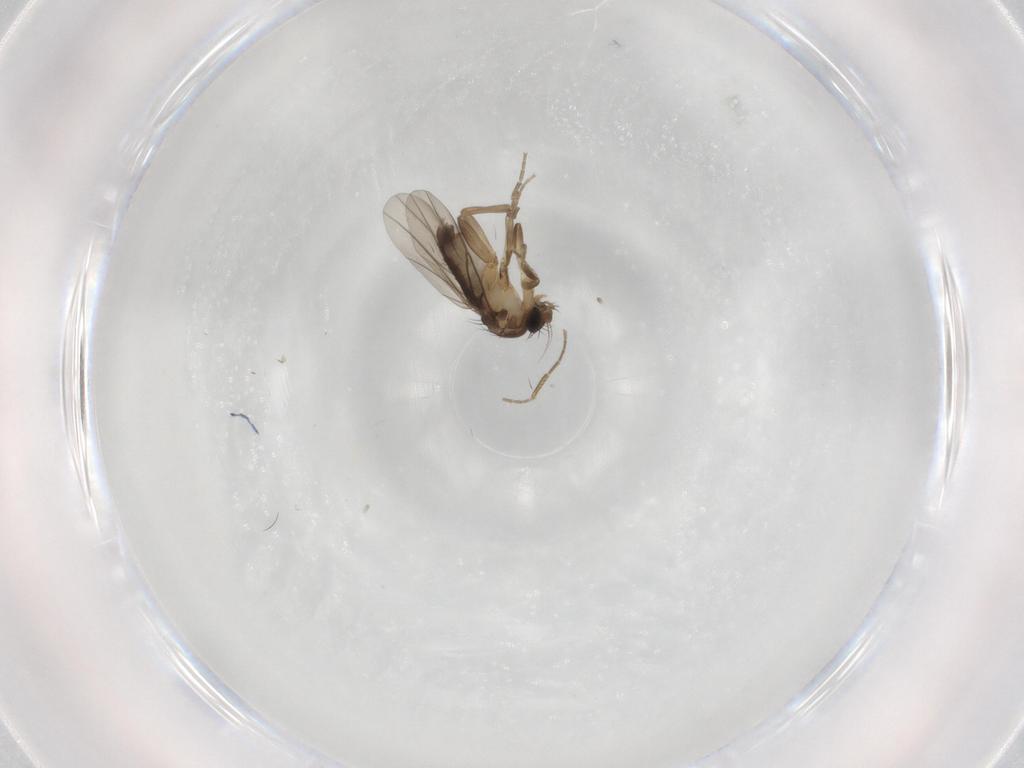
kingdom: Animalia
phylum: Arthropoda
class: Insecta
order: Diptera
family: Phoridae
